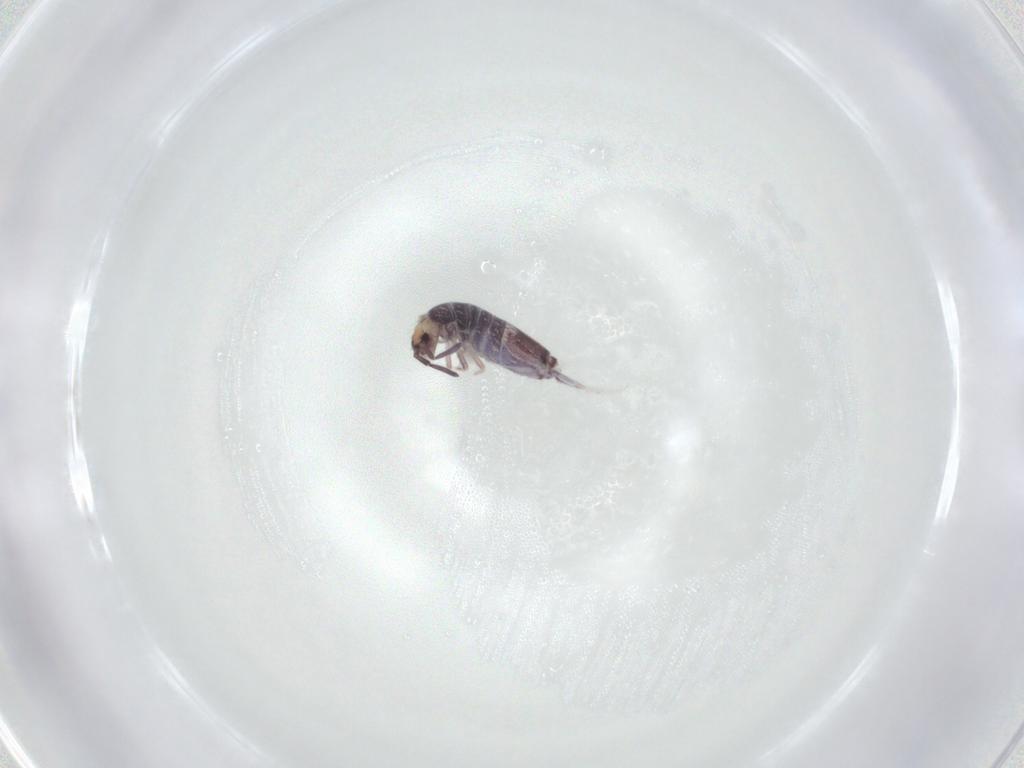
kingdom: Animalia
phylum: Arthropoda
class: Collembola
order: Entomobryomorpha
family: Entomobryidae
